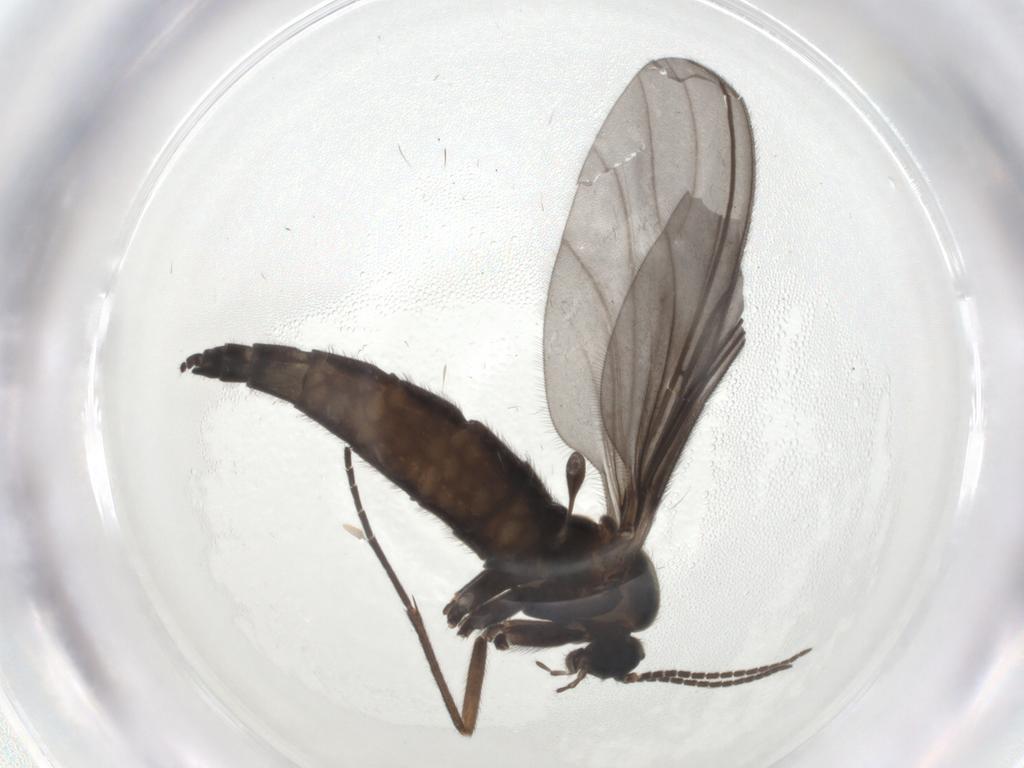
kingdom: Animalia
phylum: Arthropoda
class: Insecta
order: Diptera
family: Sciaridae
